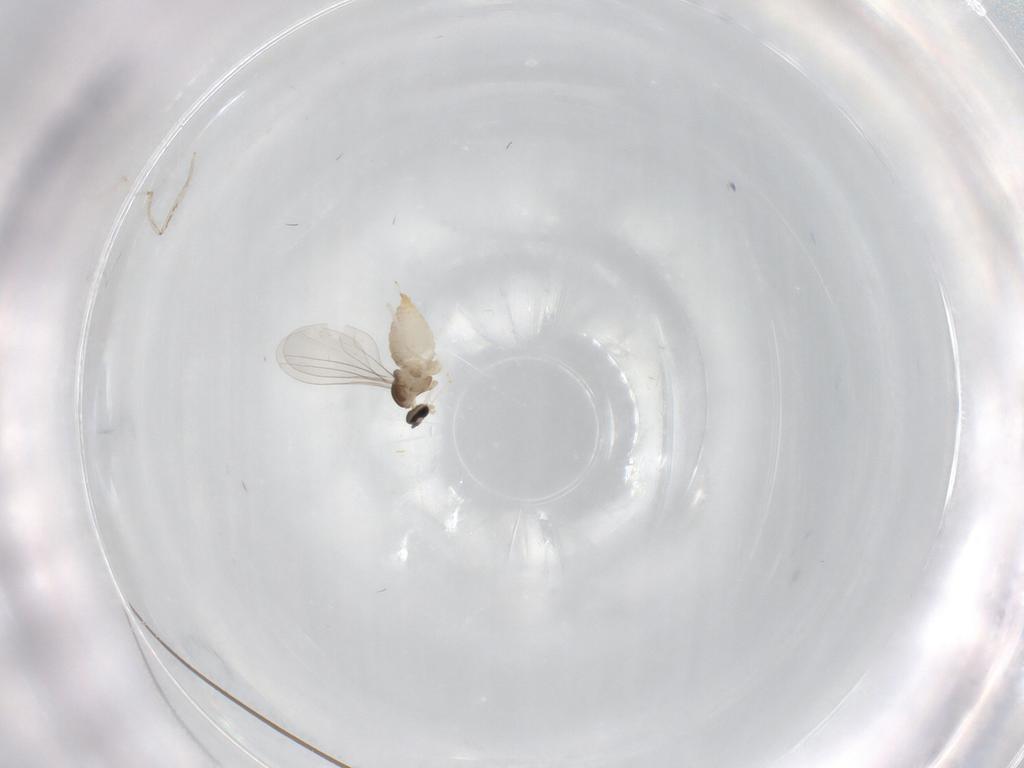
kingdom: Animalia
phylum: Arthropoda
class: Insecta
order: Diptera
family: Cecidomyiidae
